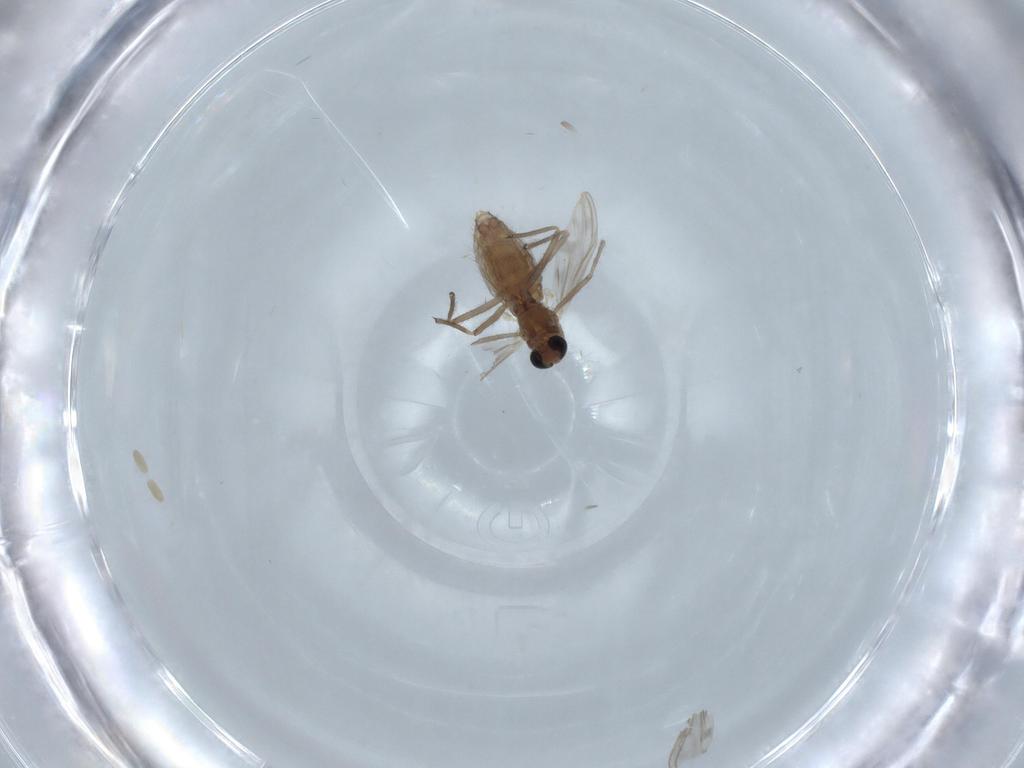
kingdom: Animalia
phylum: Arthropoda
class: Insecta
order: Diptera
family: Chironomidae
